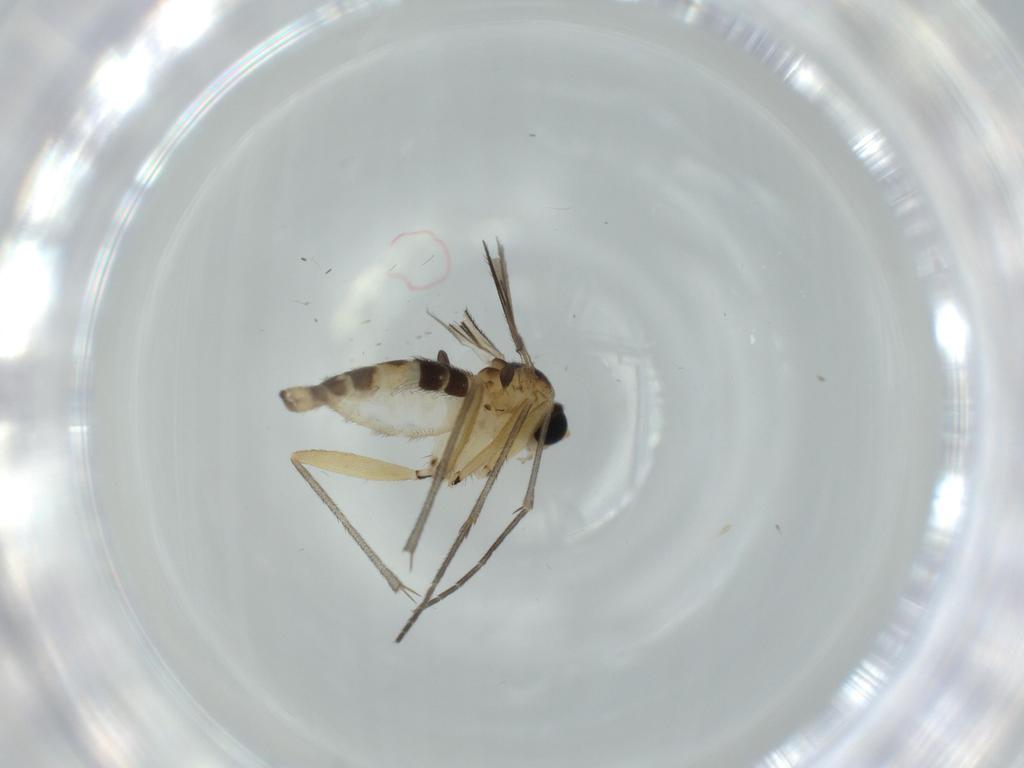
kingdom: Animalia
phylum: Arthropoda
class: Insecta
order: Diptera
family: Sciaridae
